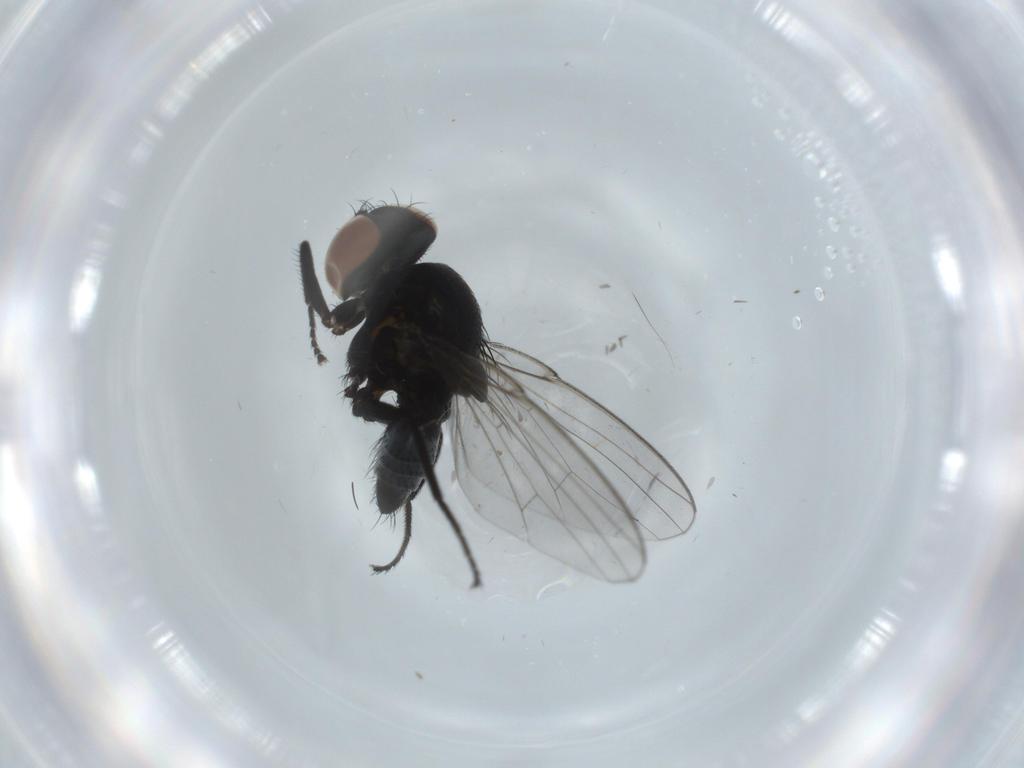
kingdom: Animalia
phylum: Arthropoda
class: Insecta
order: Diptera
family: Milichiidae
